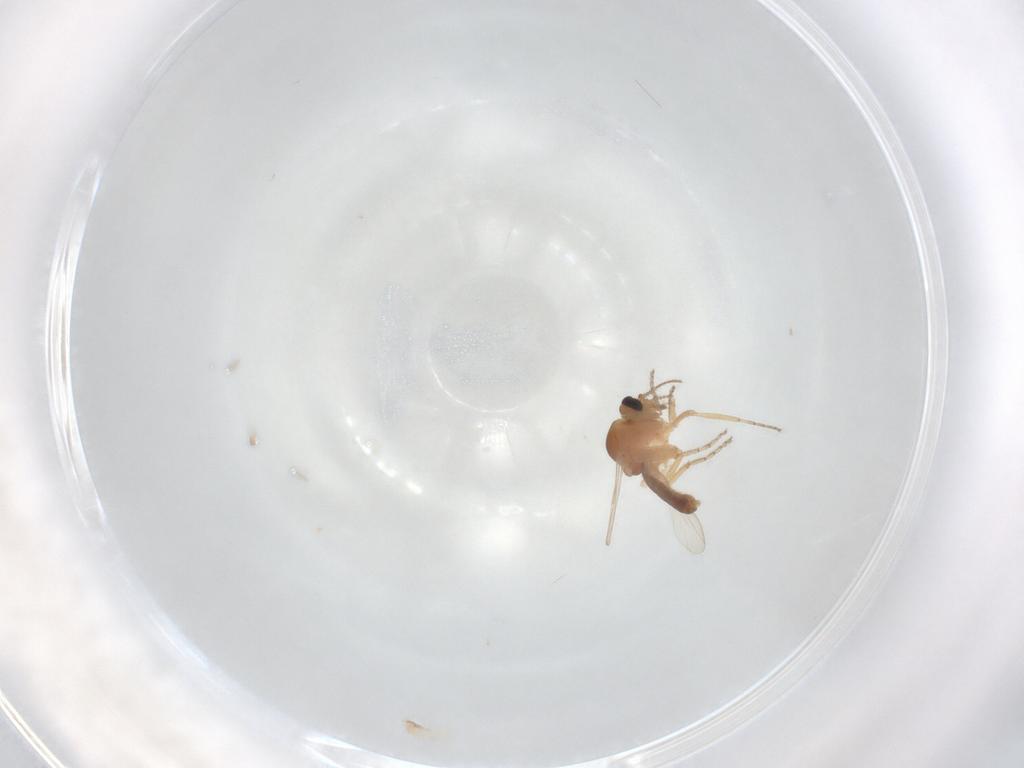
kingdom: Animalia
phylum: Arthropoda
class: Insecta
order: Diptera
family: Ceratopogonidae
